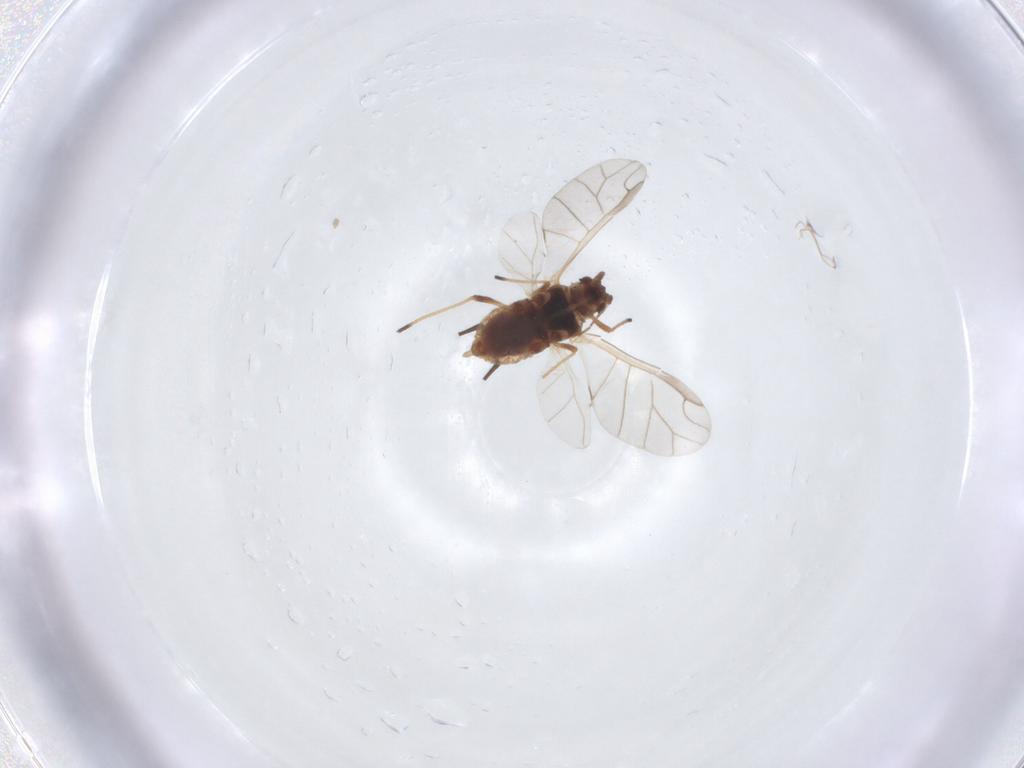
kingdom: Animalia
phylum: Arthropoda
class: Insecta
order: Hemiptera
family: Aphididae
